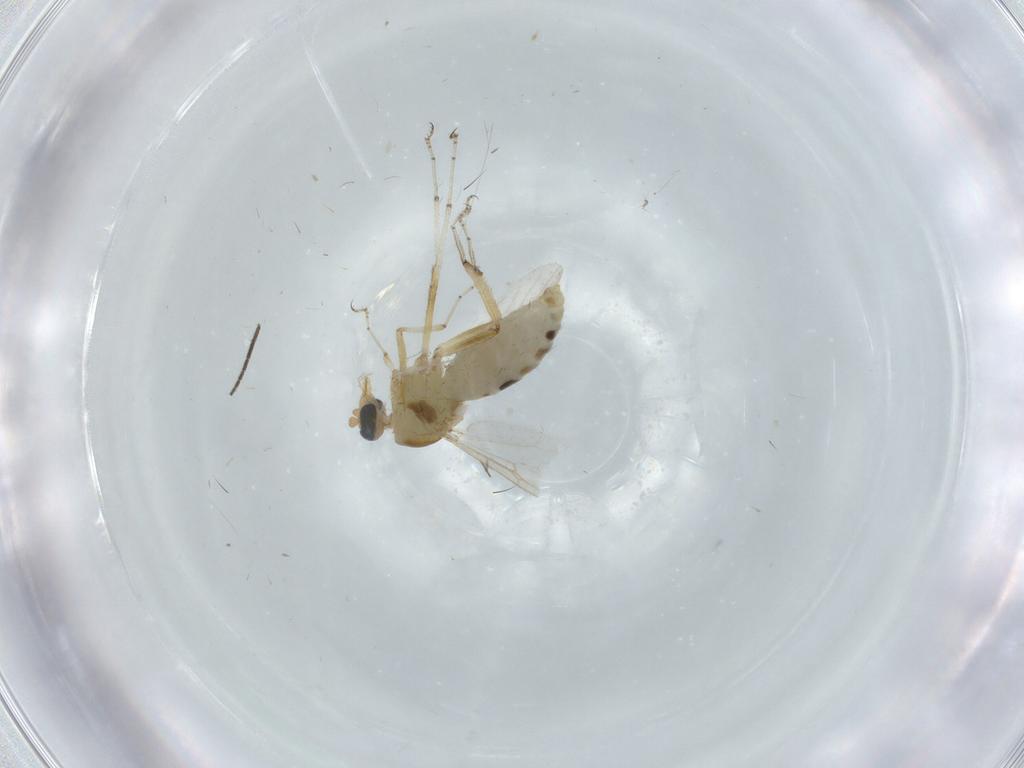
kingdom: Animalia
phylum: Arthropoda
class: Insecta
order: Diptera
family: Ceratopogonidae
